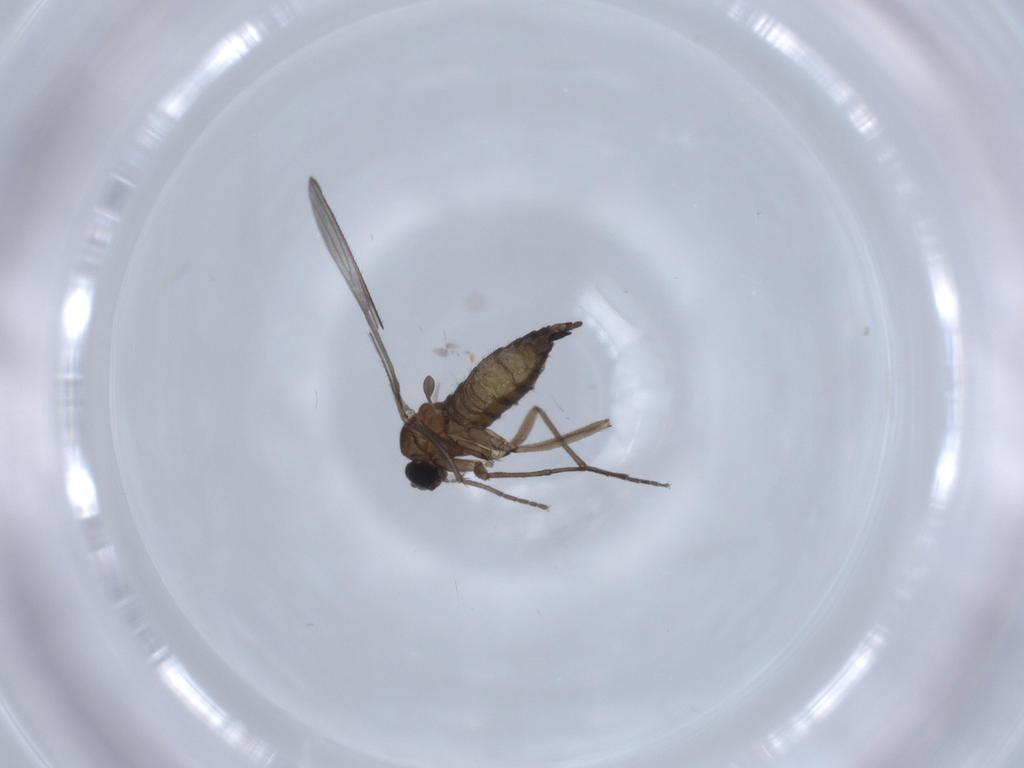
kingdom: Animalia
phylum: Arthropoda
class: Insecta
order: Diptera
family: Sciaridae
